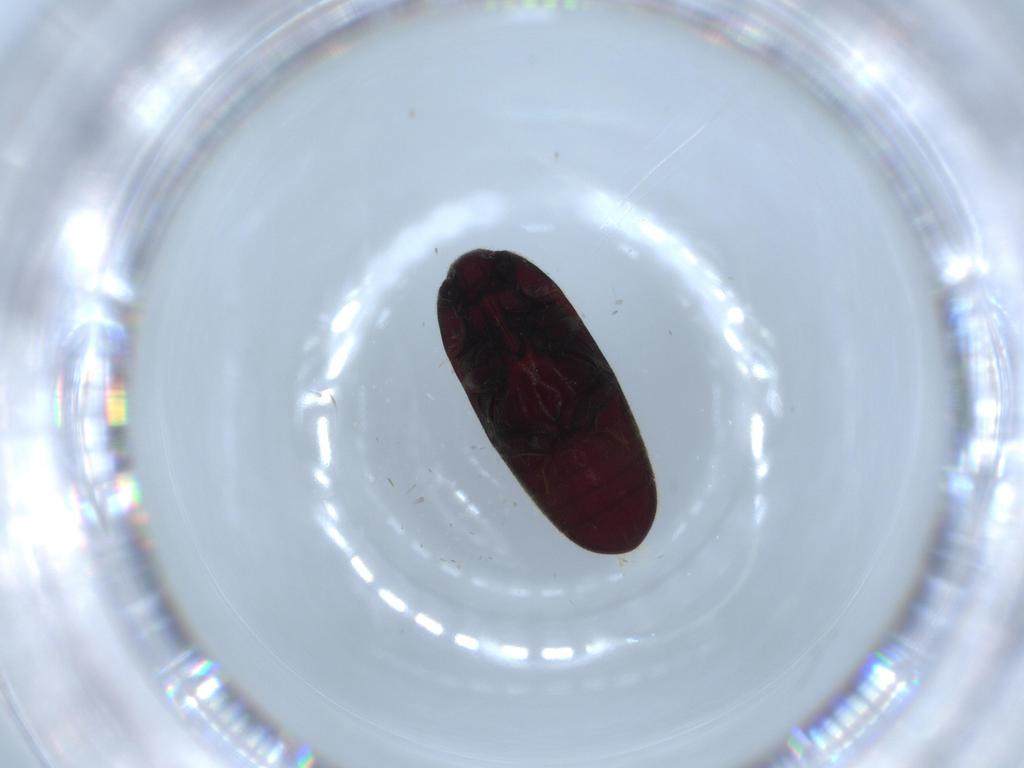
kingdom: Animalia
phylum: Arthropoda
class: Insecta
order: Coleoptera
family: Throscidae
